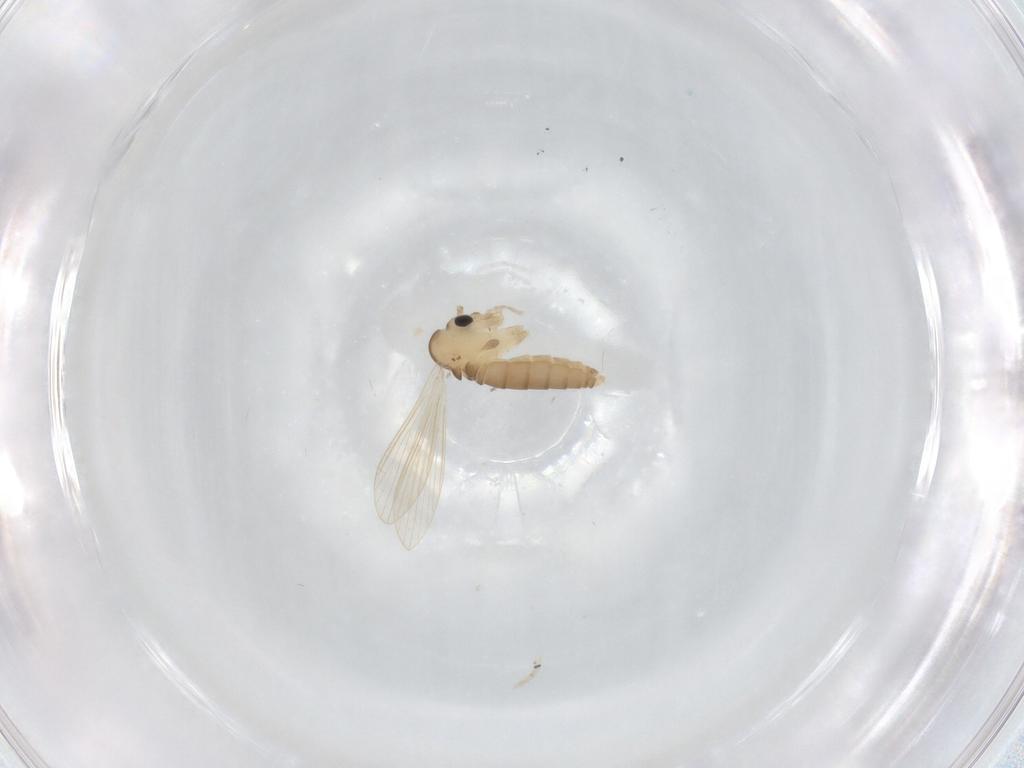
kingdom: Animalia
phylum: Arthropoda
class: Insecta
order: Diptera
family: Psychodidae
